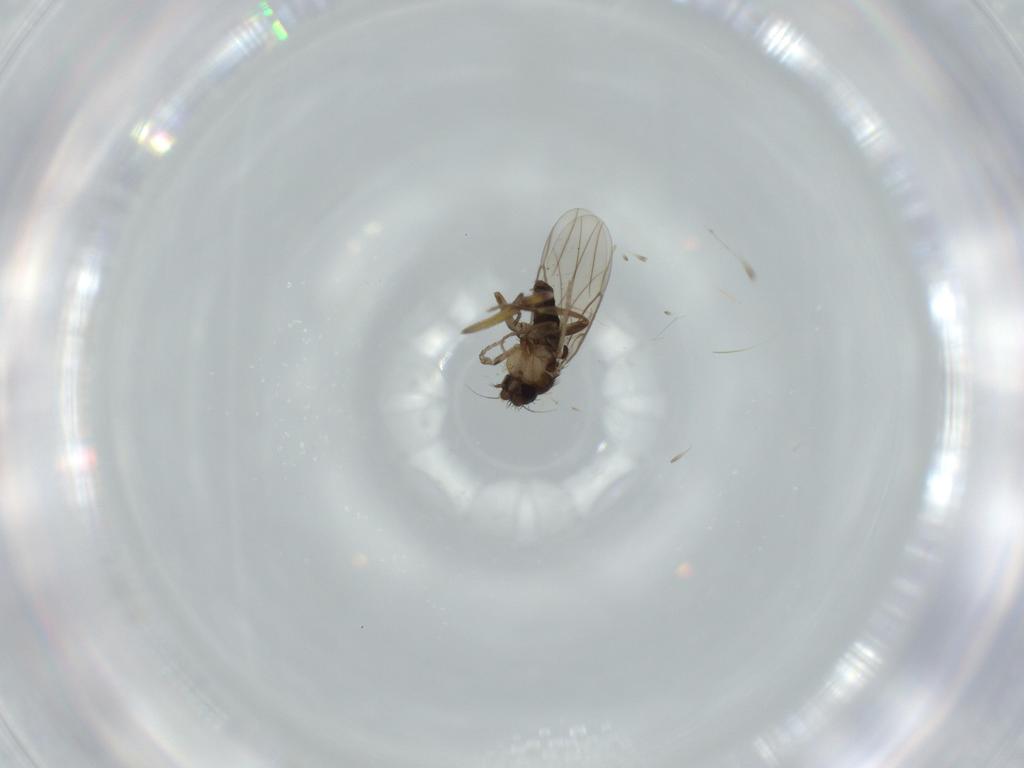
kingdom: Animalia
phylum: Arthropoda
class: Insecta
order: Diptera
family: Phoridae
